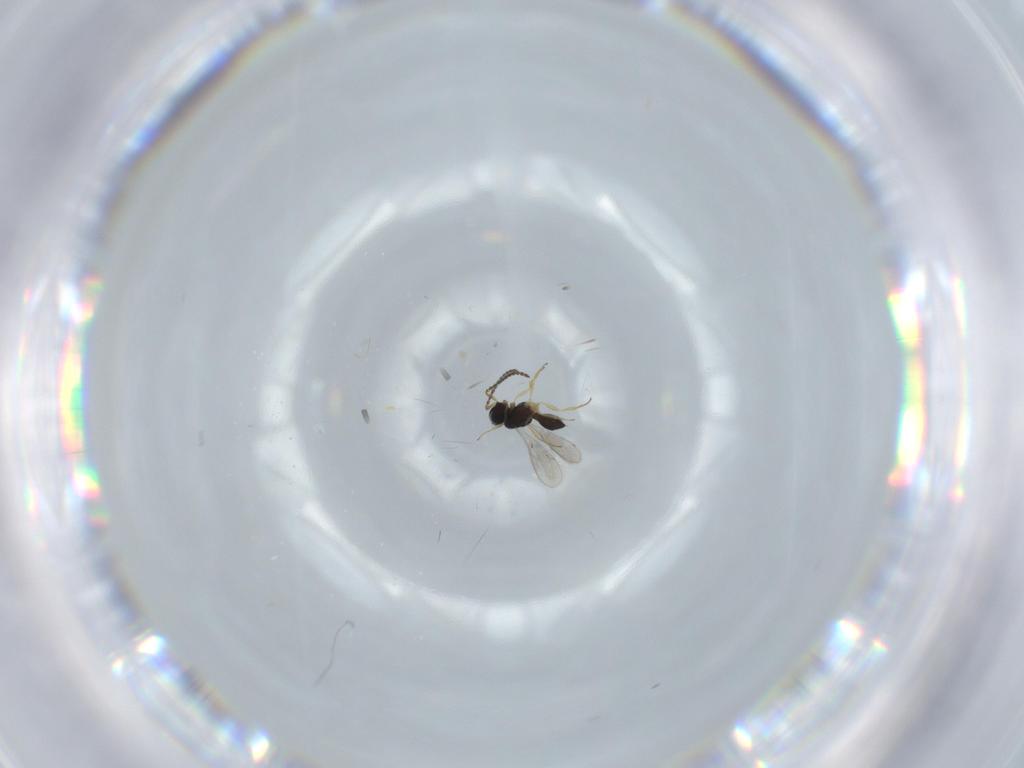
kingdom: Animalia
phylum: Arthropoda
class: Insecta
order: Hymenoptera
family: Scelionidae
